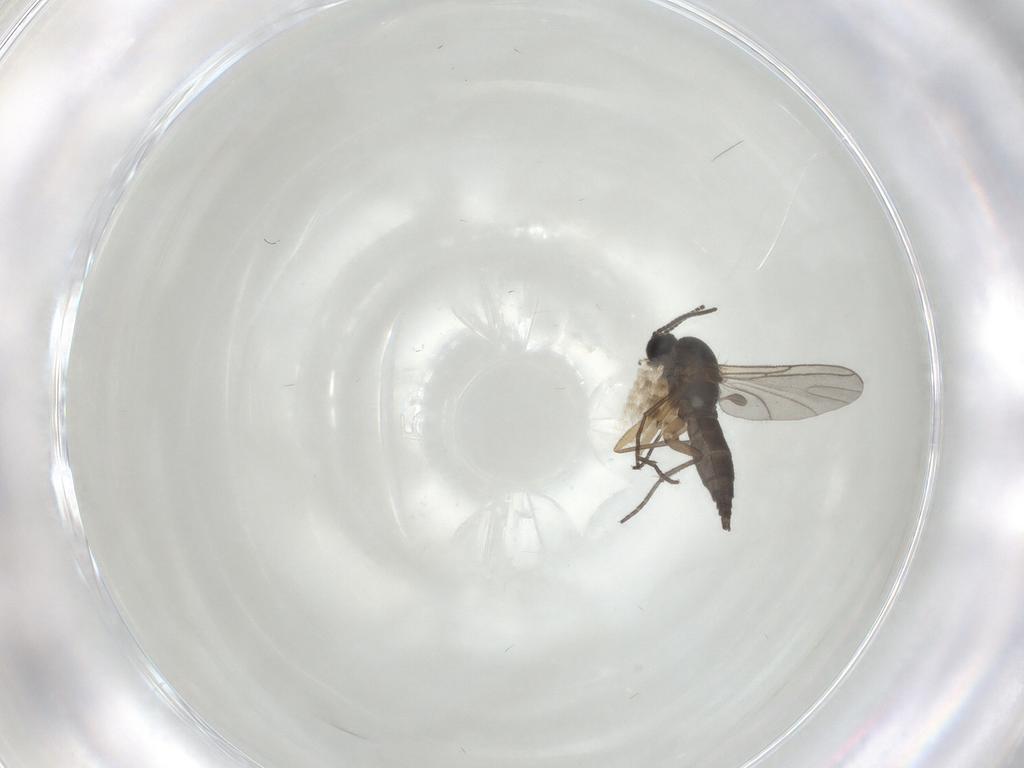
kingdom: Animalia
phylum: Arthropoda
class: Insecta
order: Diptera
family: Sciaridae
